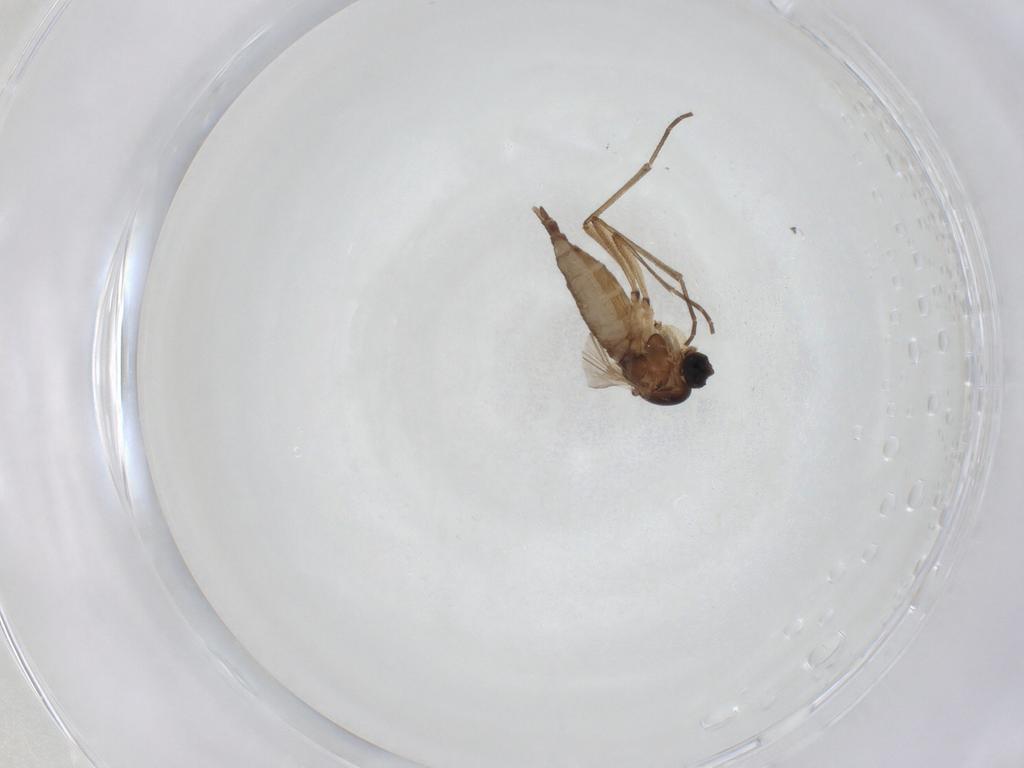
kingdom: Animalia
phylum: Arthropoda
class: Insecta
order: Diptera
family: Sciaridae
